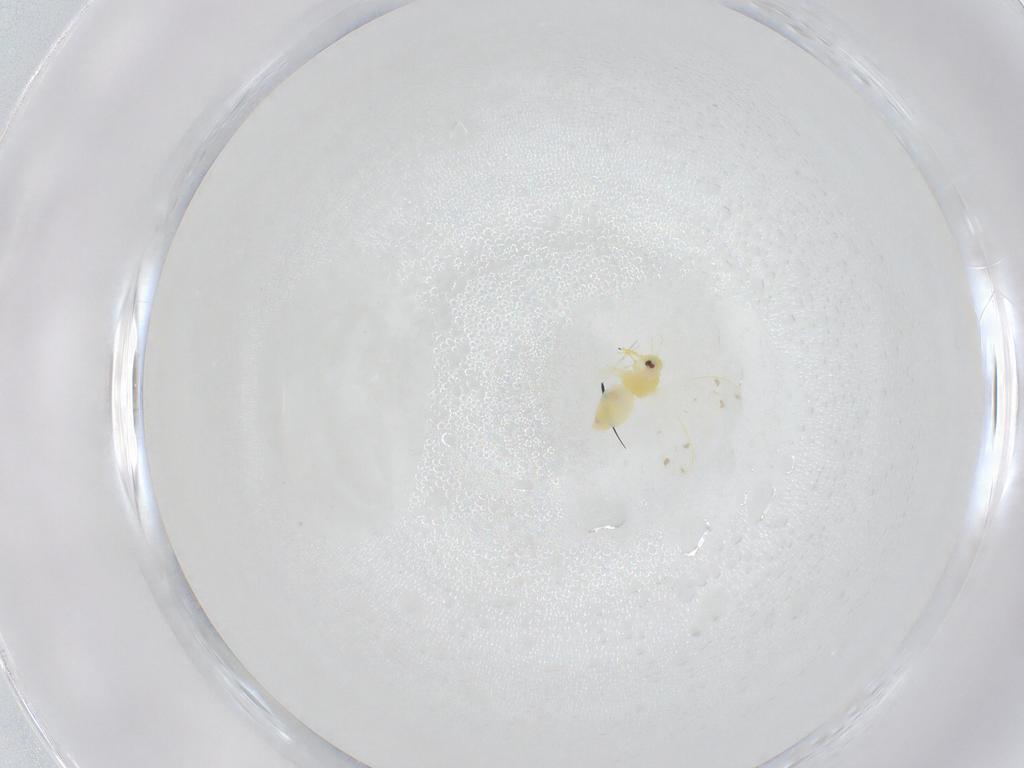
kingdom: Animalia
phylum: Arthropoda
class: Insecta
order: Hemiptera
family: Aleyrodidae
